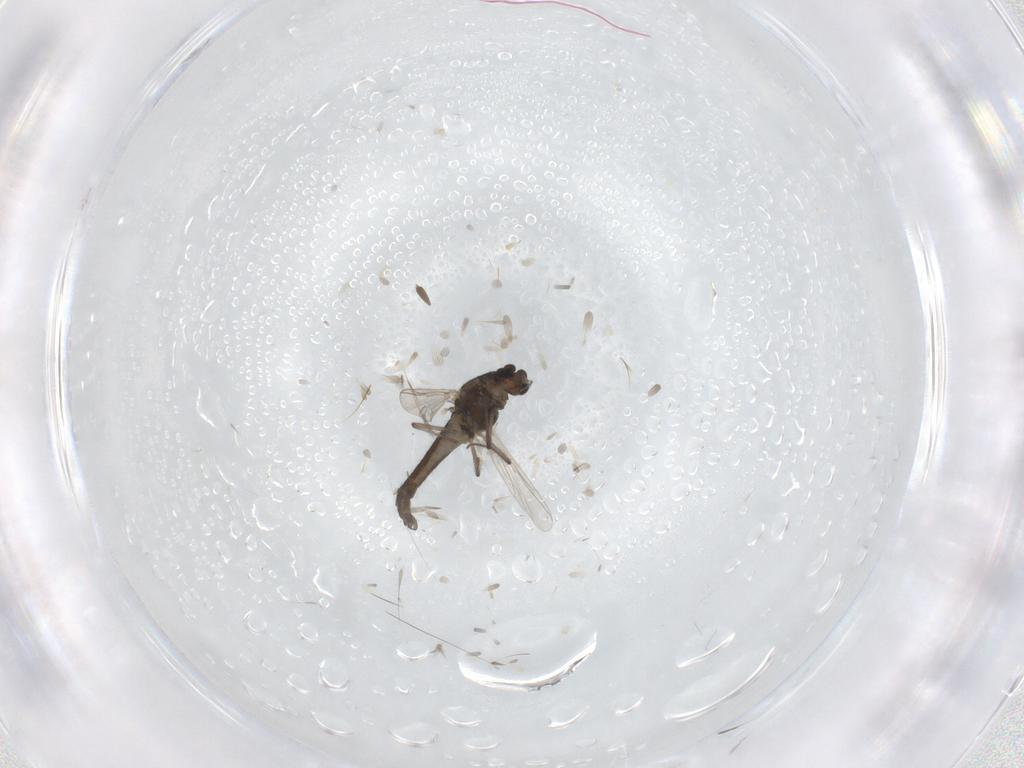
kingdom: Animalia
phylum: Arthropoda
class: Insecta
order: Diptera
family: Chironomidae
